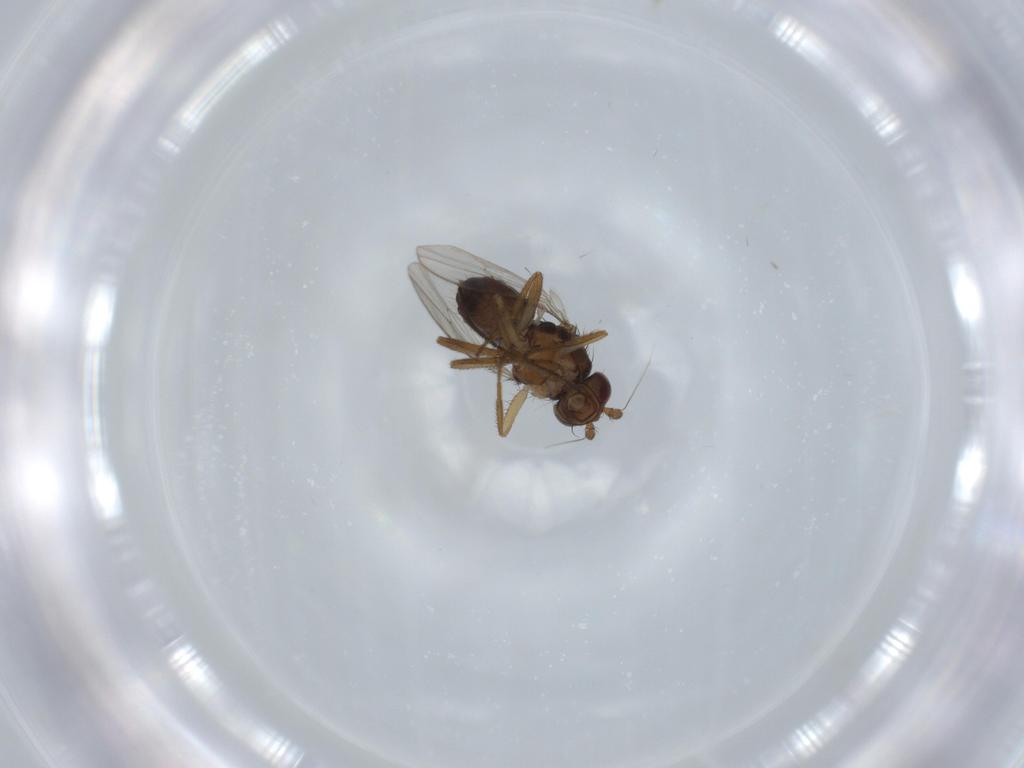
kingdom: Animalia
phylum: Arthropoda
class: Insecta
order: Diptera
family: Sphaeroceridae
